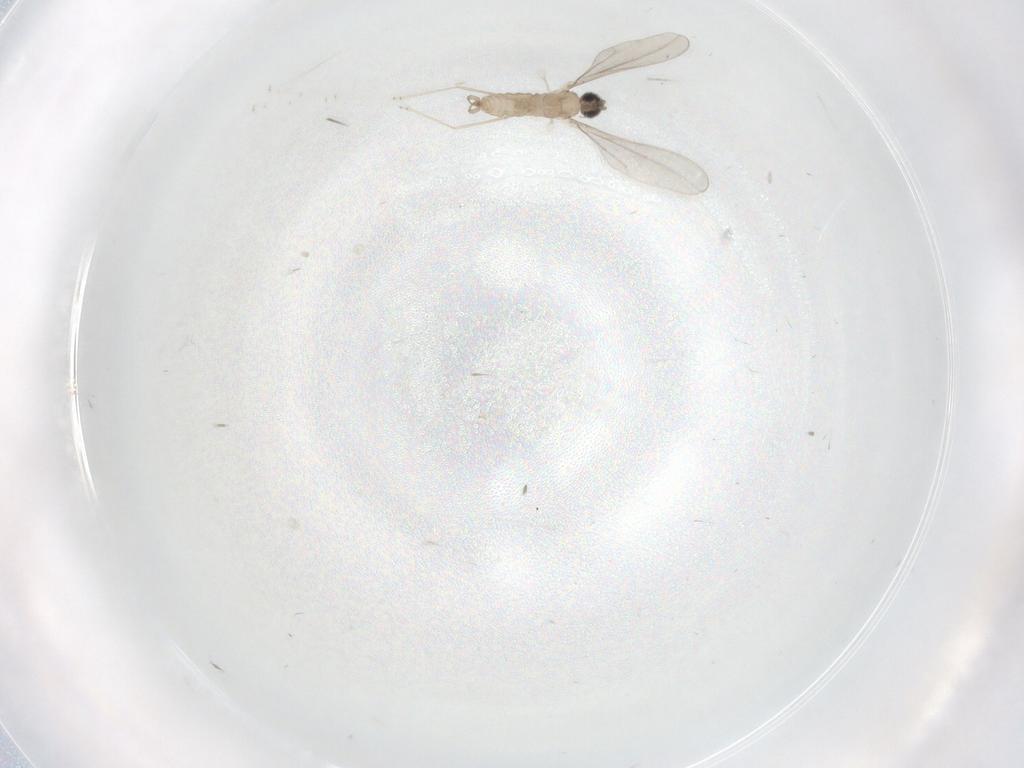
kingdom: Animalia
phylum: Arthropoda
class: Insecta
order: Diptera
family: Cecidomyiidae
